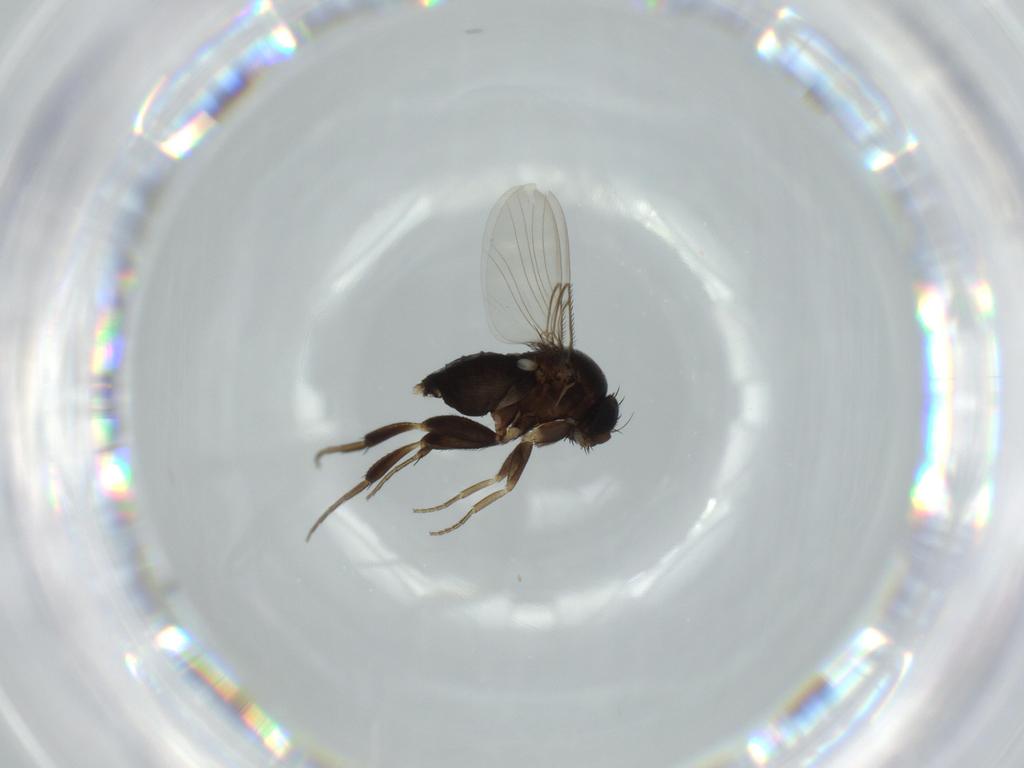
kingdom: Animalia
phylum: Arthropoda
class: Insecta
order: Diptera
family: Phoridae
